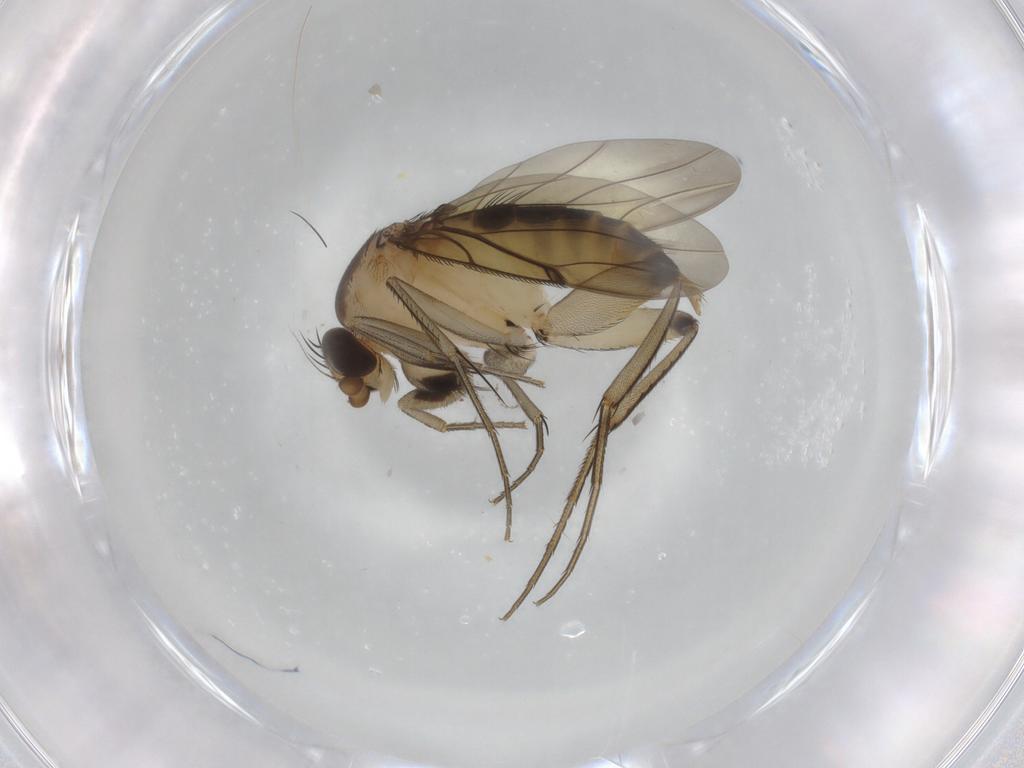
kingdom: Animalia
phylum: Arthropoda
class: Insecta
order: Diptera
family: Phoridae
